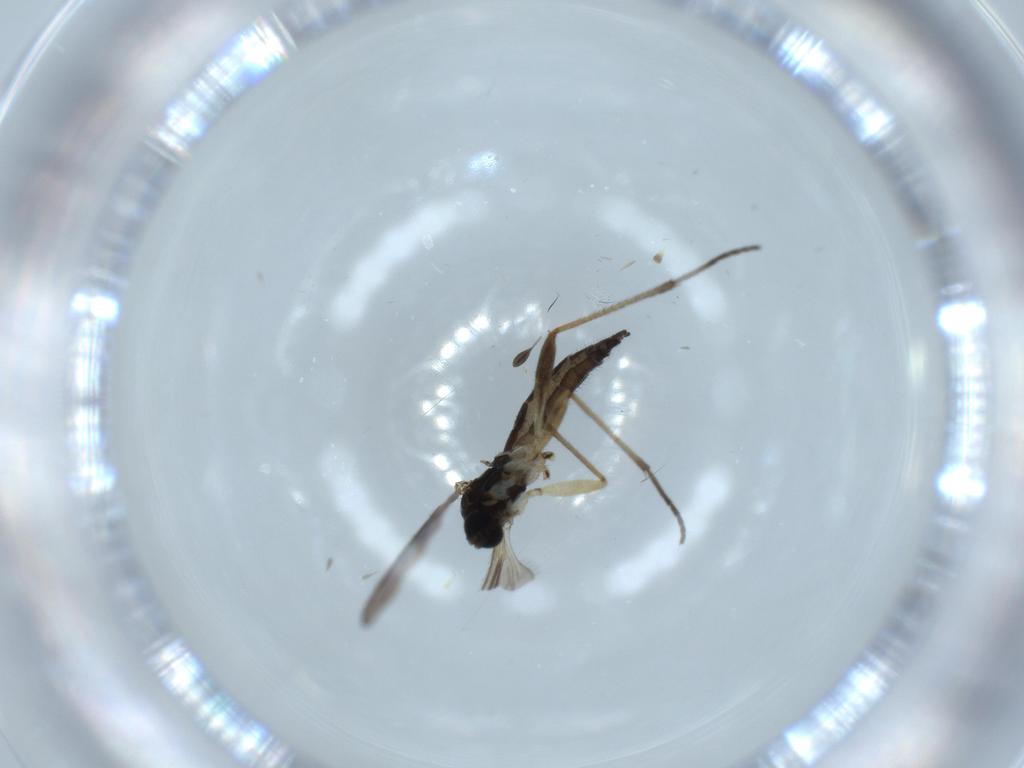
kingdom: Animalia
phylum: Arthropoda
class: Insecta
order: Diptera
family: Sciaridae
